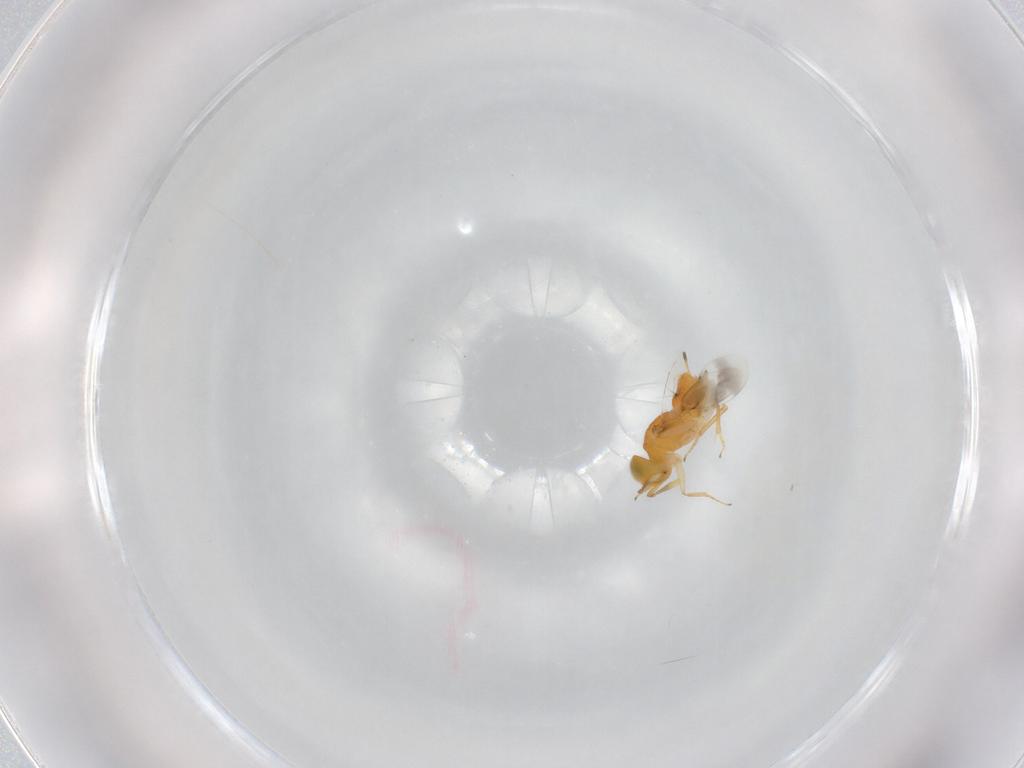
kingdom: Animalia
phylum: Arthropoda
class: Insecta
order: Hymenoptera
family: Encyrtidae
